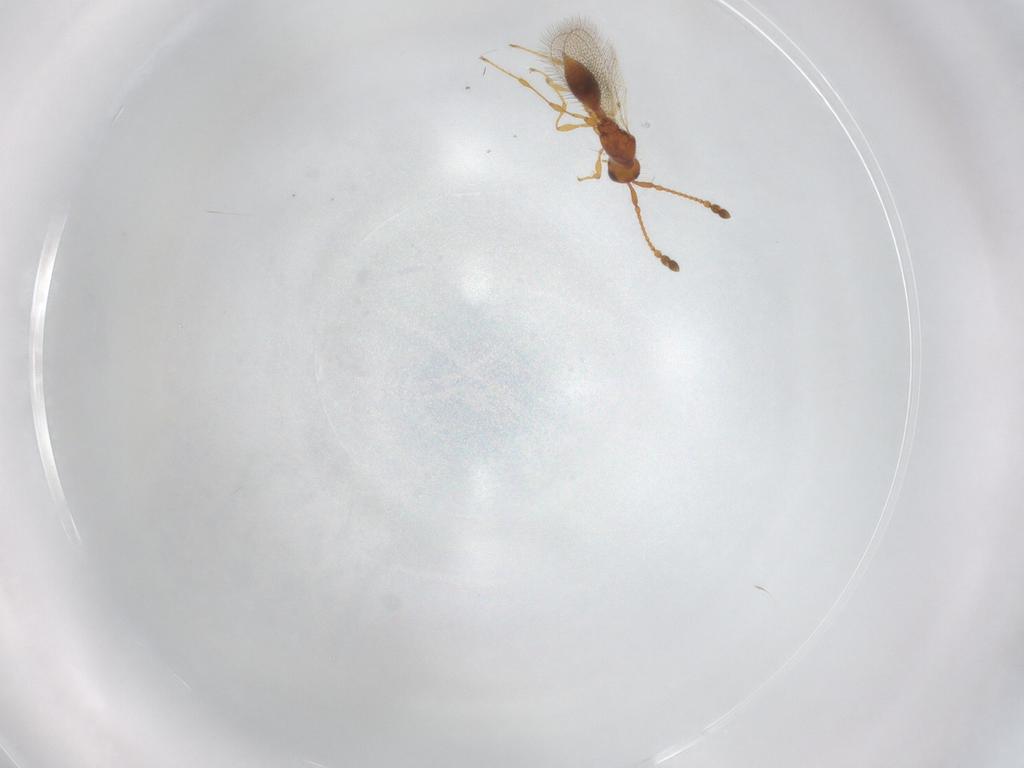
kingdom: Animalia
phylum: Arthropoda
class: Insecta
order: Hymenoptera
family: Diapriidae
